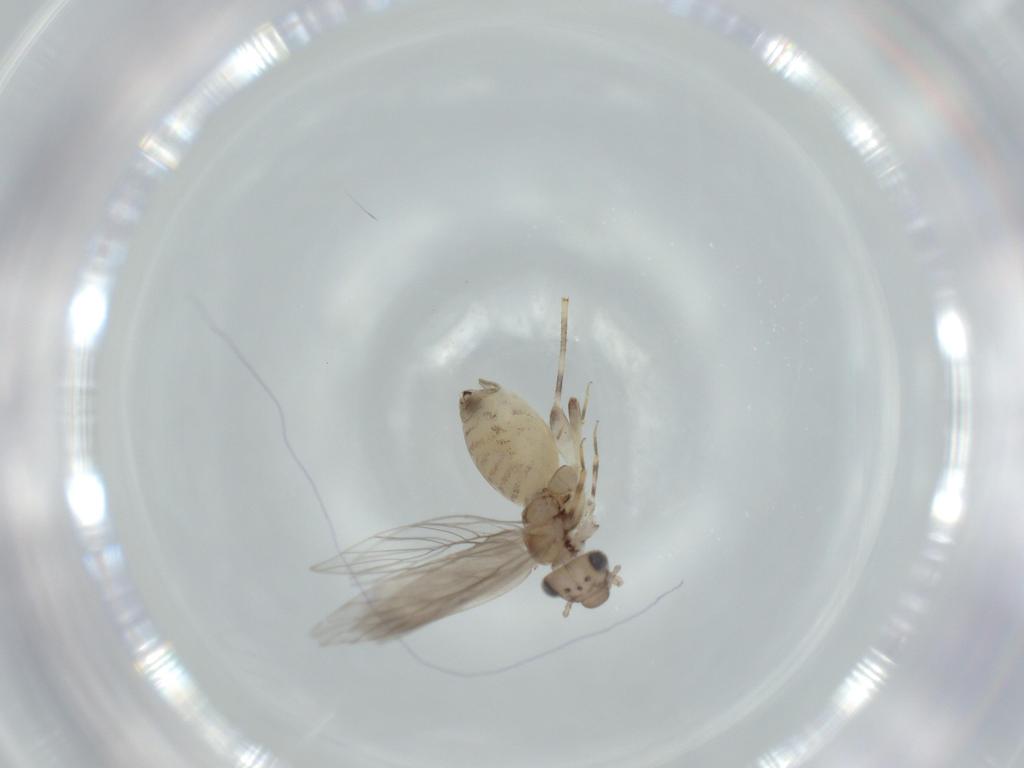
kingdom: Animalia
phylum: Arthropoda
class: Insecta
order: Psocodea
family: Lepidopsocidae
